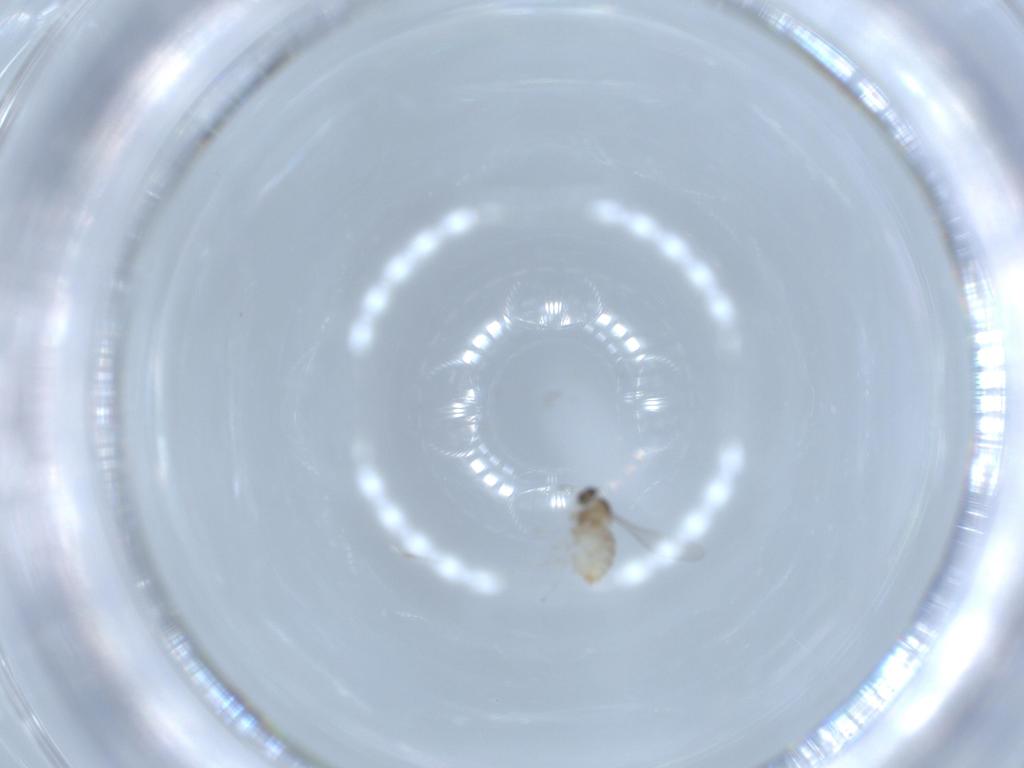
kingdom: Animalia
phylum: Arthropoda
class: Insecta
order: Diptera
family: Cecidomyiidae
